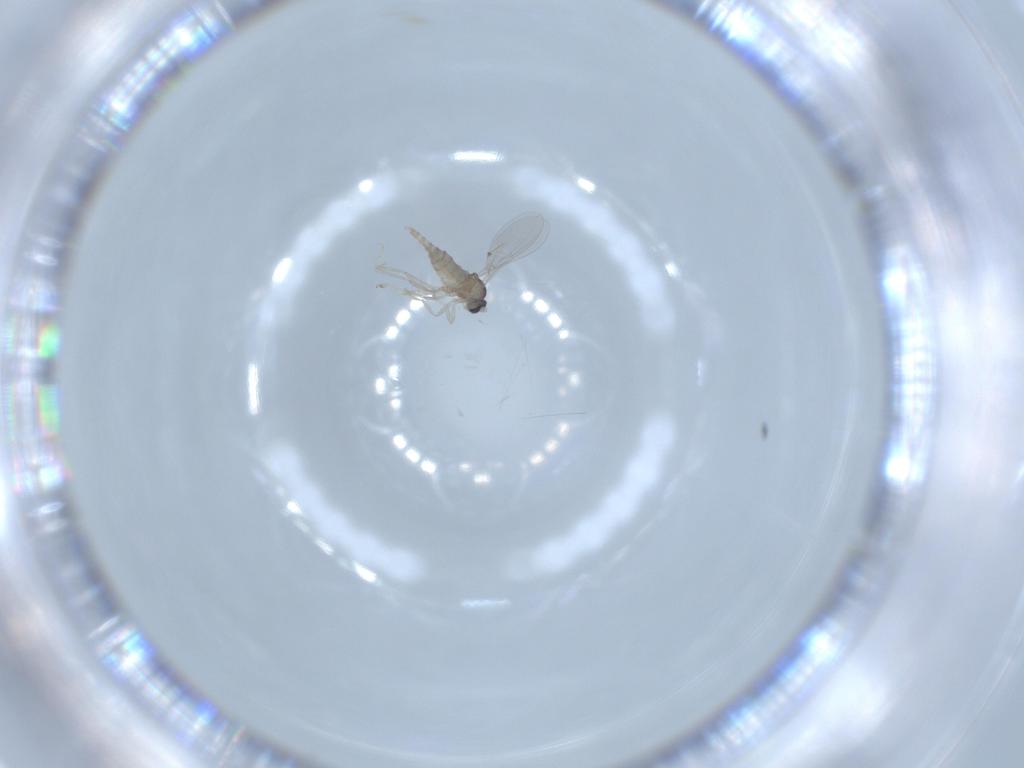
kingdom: Animalia
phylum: Arthropoda
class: Insecta
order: Diptera
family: Cecidomyiidae
